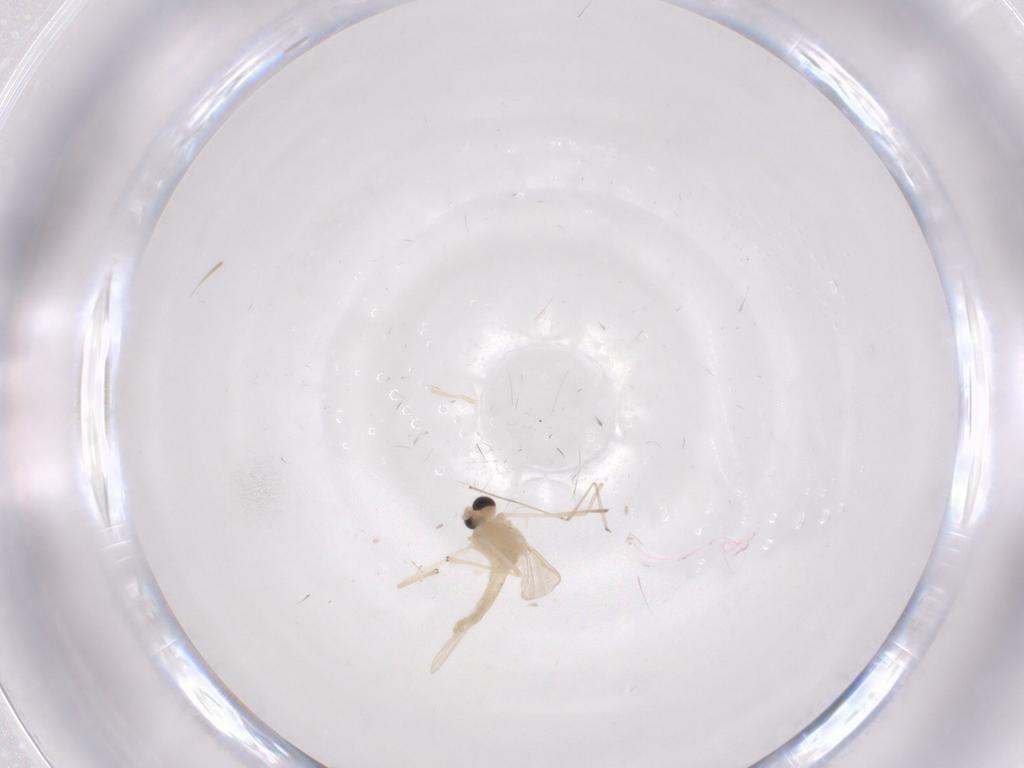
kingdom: Animalia
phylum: Arthropoda
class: Insecta
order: Diptera
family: Chironomidae
